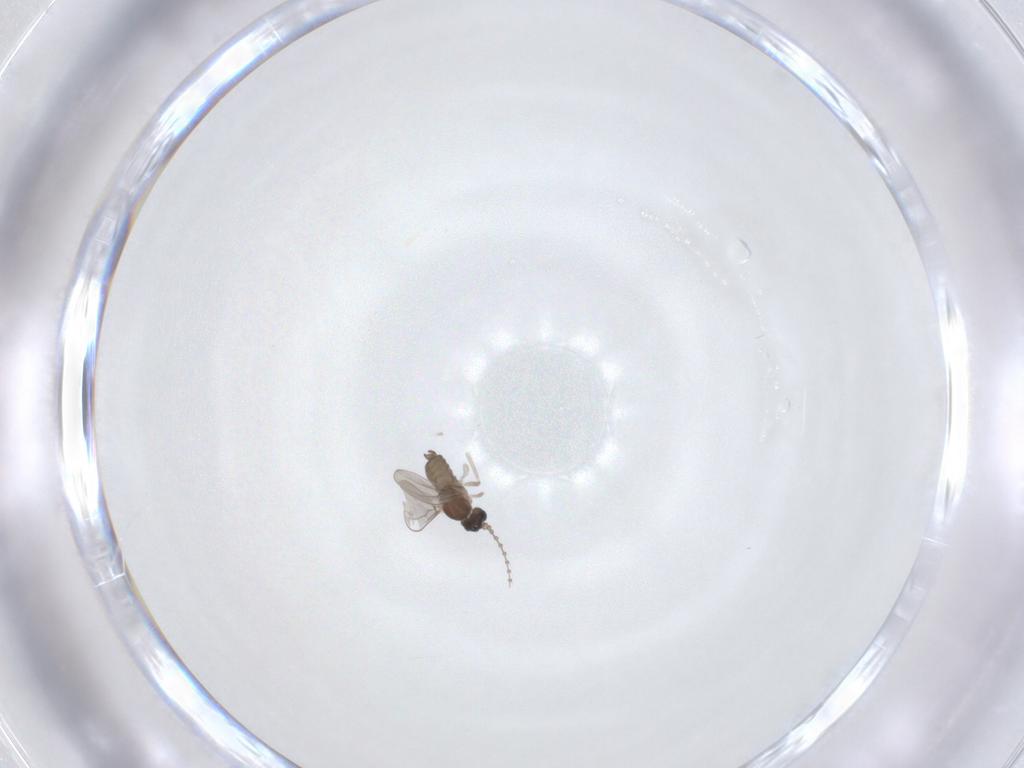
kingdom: Animalia
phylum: Arthropoda
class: Insecta
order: Diptera
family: Cecidomyiidae
